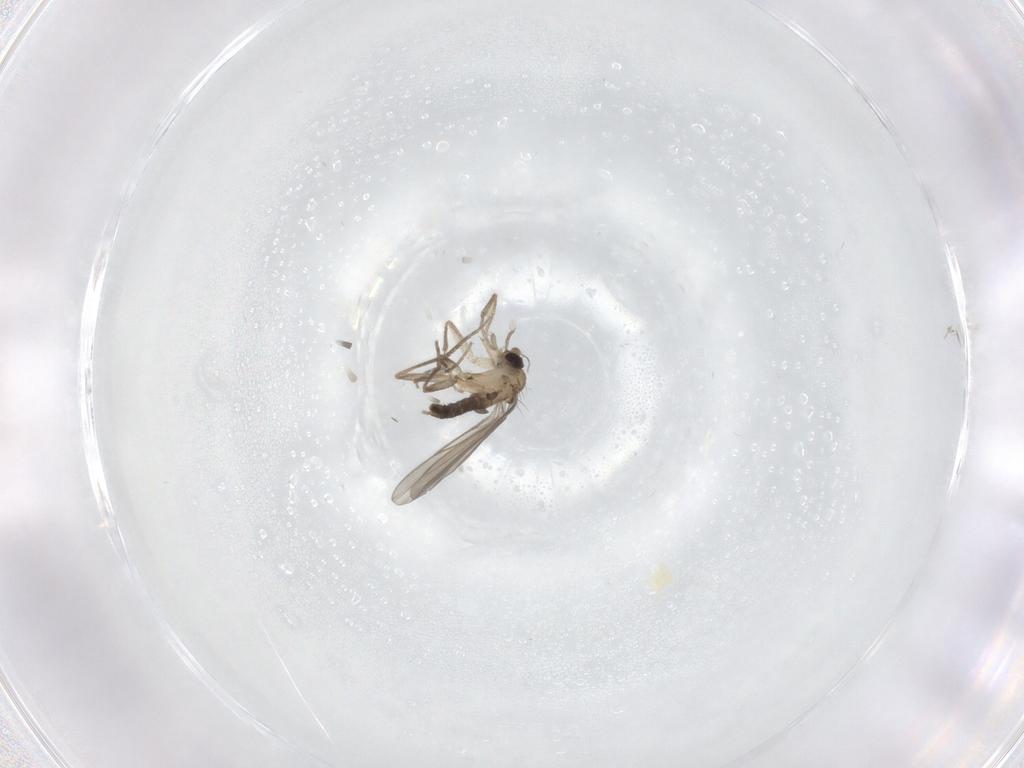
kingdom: Animalia
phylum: Arthropoda
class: Insecta
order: Diptera
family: Phoridae
